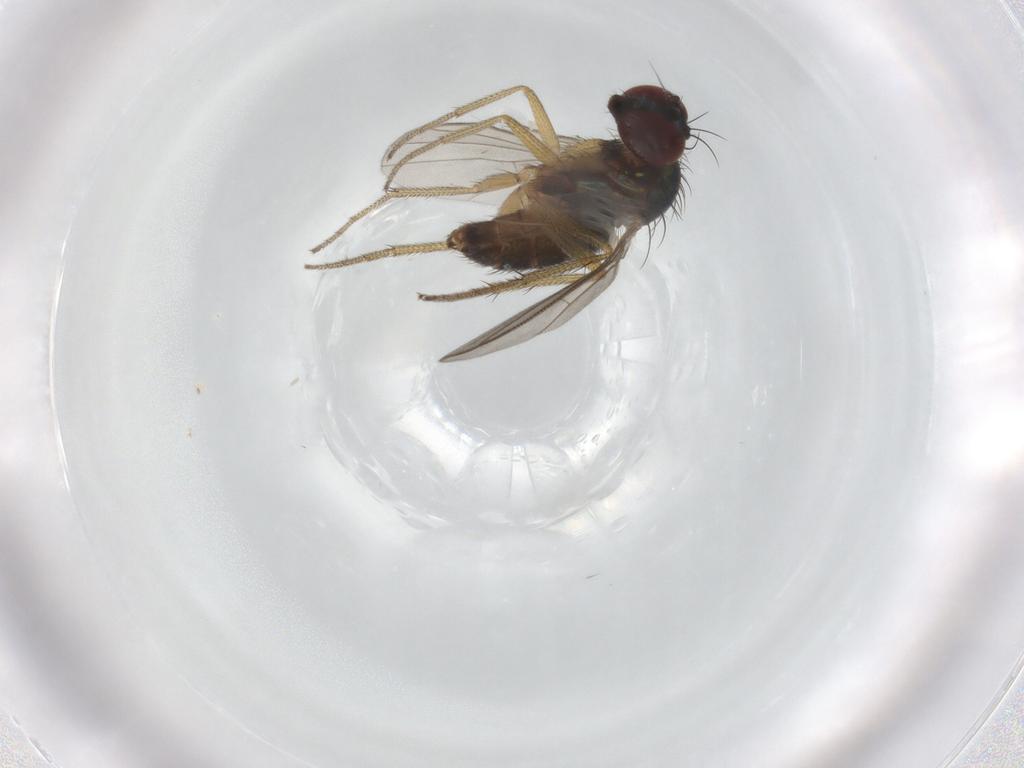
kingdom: Animalia
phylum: Arthropoda
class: Insecta
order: Diptera
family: Dolichopodidae
